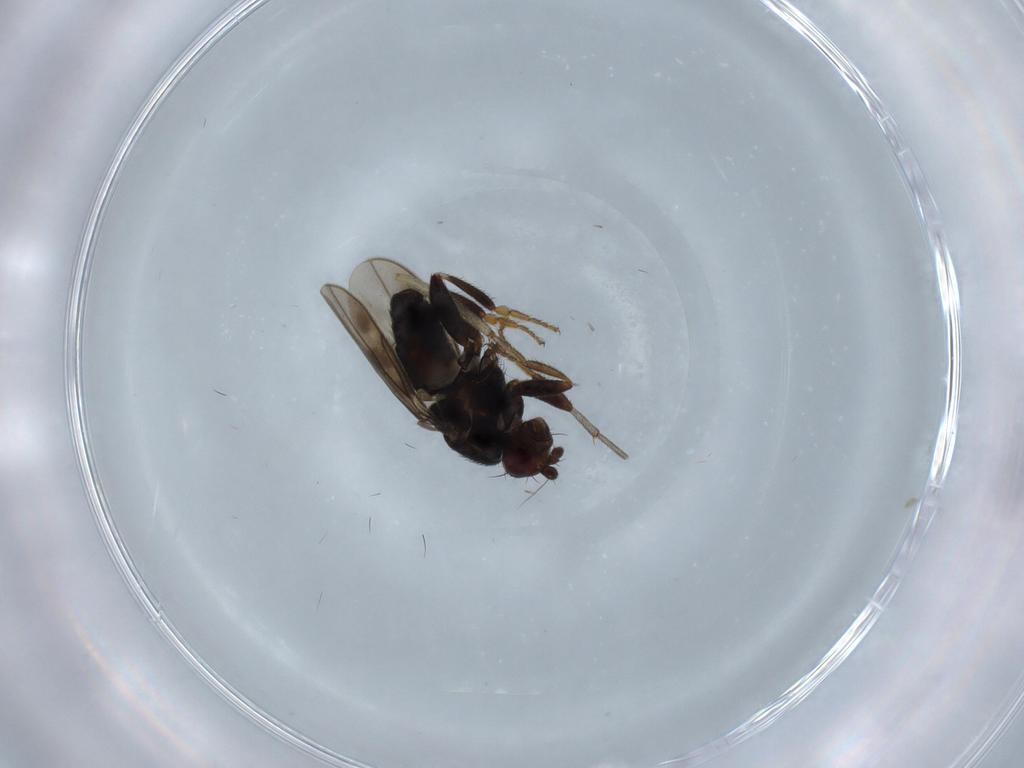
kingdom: Animalia
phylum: Arthropoda
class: Insecta
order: Diptera
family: Sphaeroceridae
